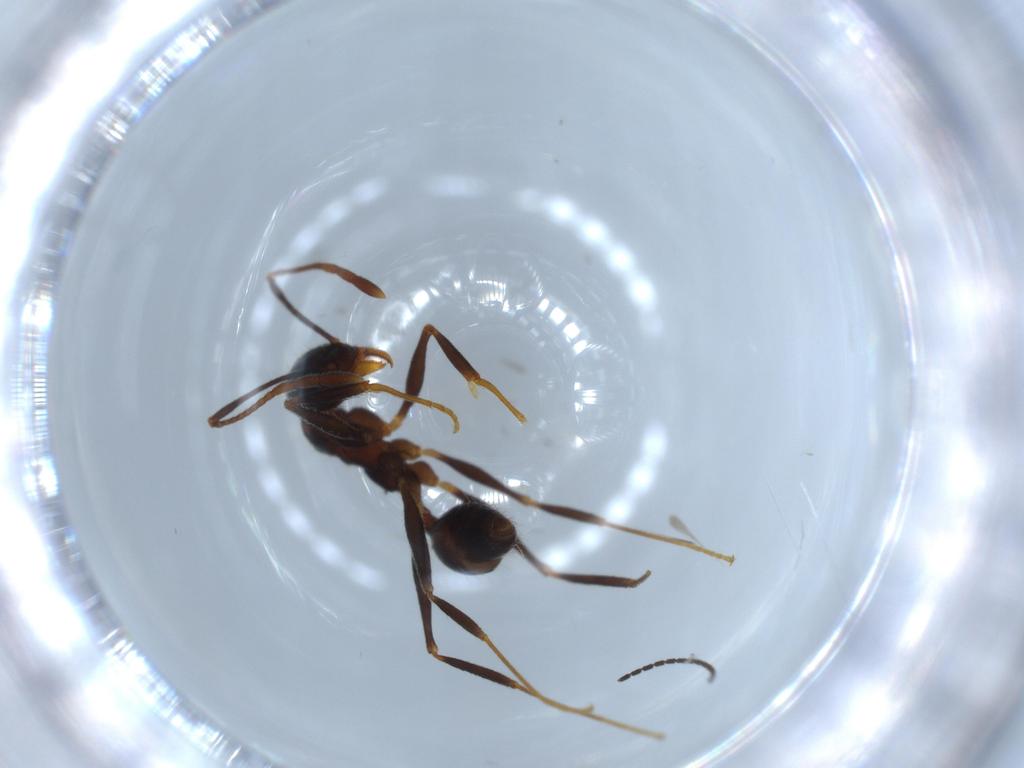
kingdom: Animalia
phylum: Arthropoda
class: Insecta
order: Hymenoptera
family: Formicidae
